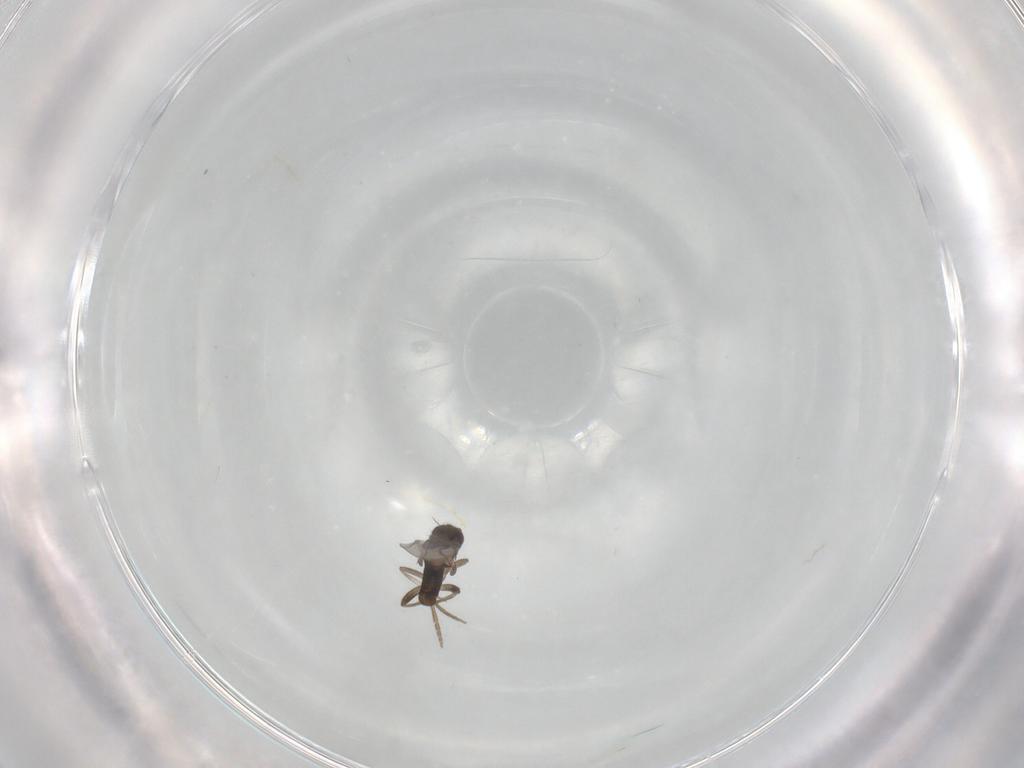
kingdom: Animalia
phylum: Arthropoda
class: Insecta
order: Diptera
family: Phoridae
